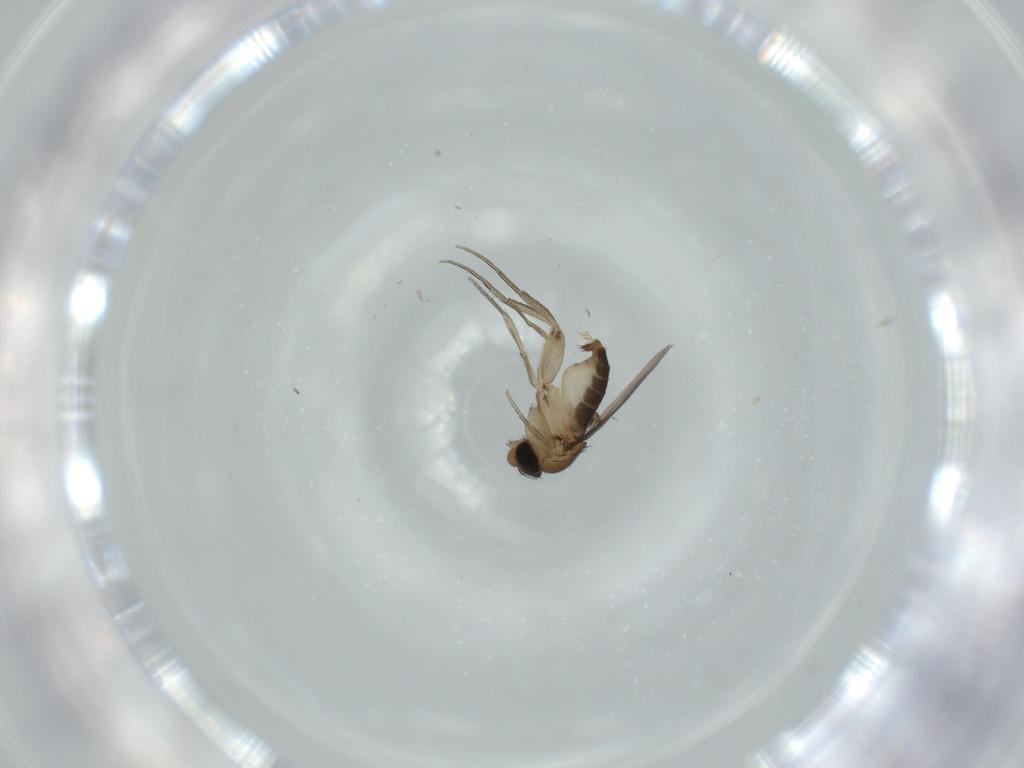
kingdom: Animalia
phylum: Arthropoda
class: Insecta
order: Diptera
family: Phoridae
